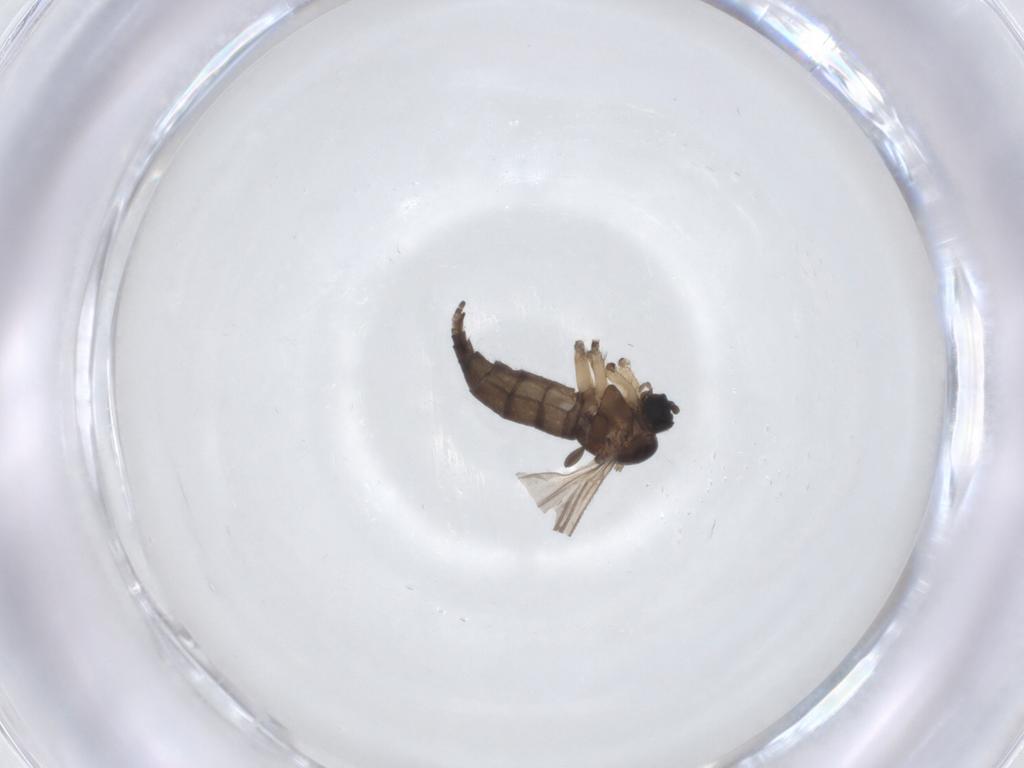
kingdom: Animalia
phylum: Arthropoda
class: Insecta
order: Diptera
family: Sciaridae
